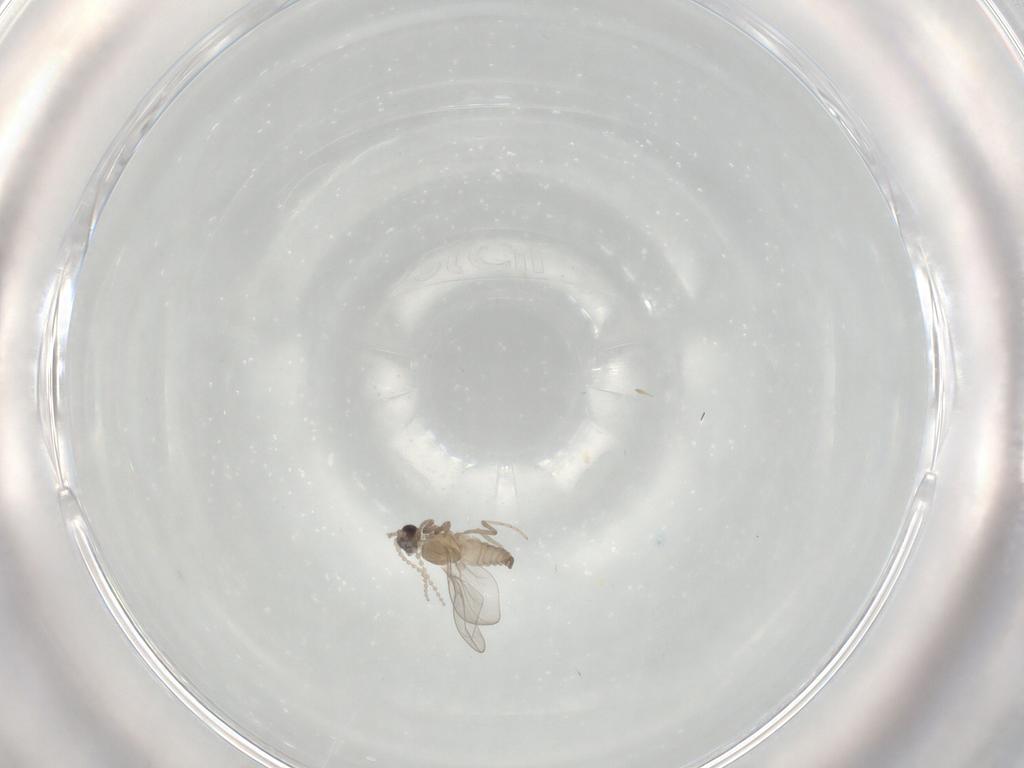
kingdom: Animalia
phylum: Arthropoda
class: Insecta
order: Diptera
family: Cecidomyiidae
